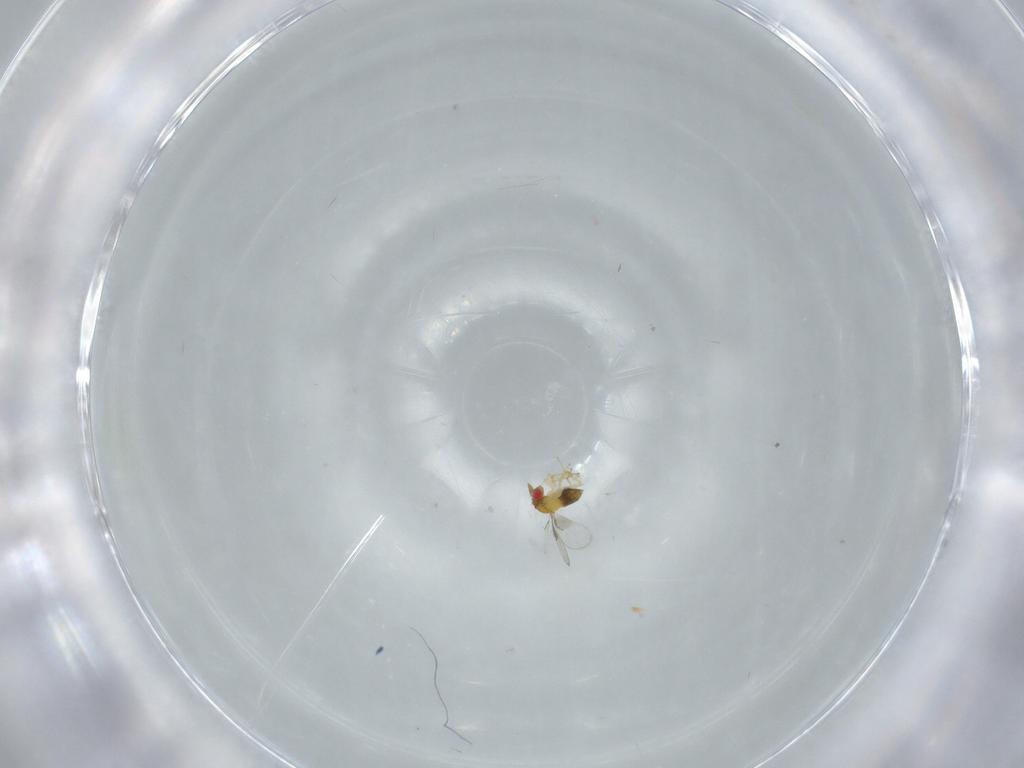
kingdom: Animalia
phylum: Arthropoda
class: Insecta
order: Hymenoptera
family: Trichogrammatidae
